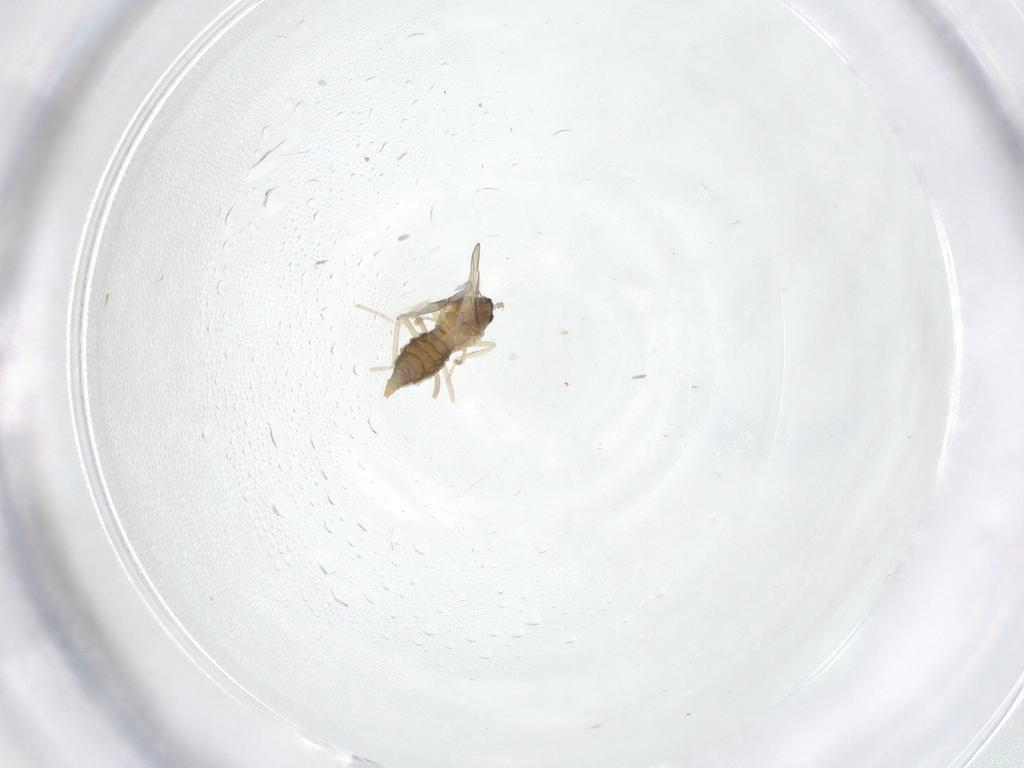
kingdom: Animalia
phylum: Arthropoda
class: Insecta
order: Diptera
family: Cecidomyiidae
